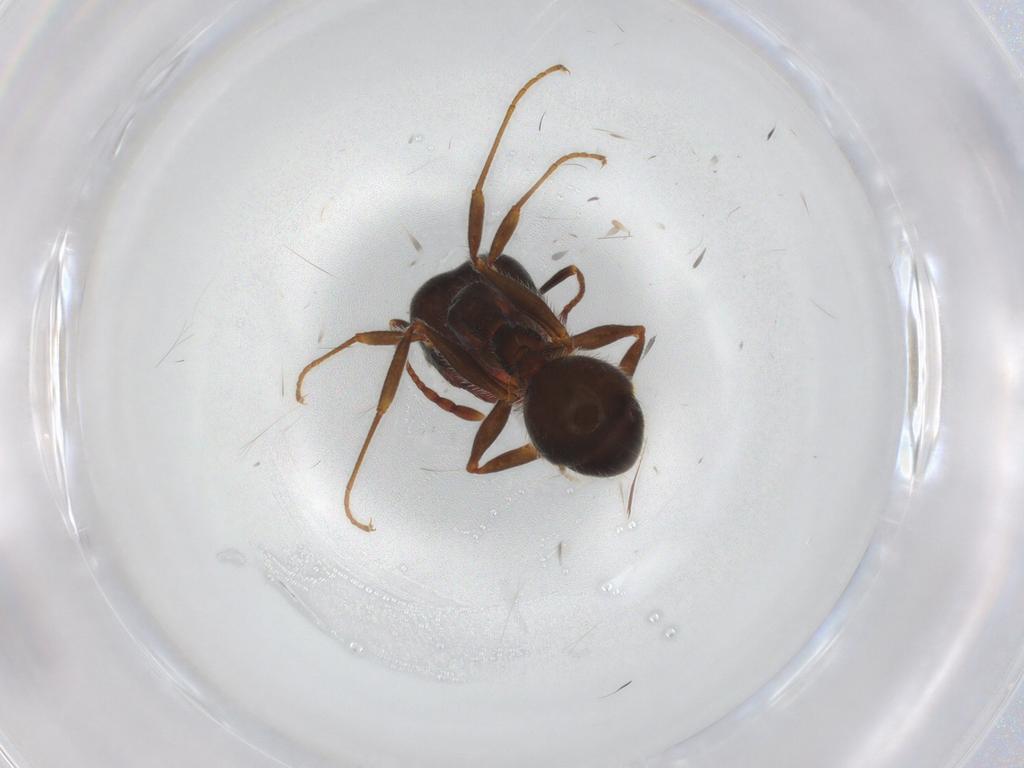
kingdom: Animalia
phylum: Arthropoda
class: Insecta
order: Hymenoptera
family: Formicidae
